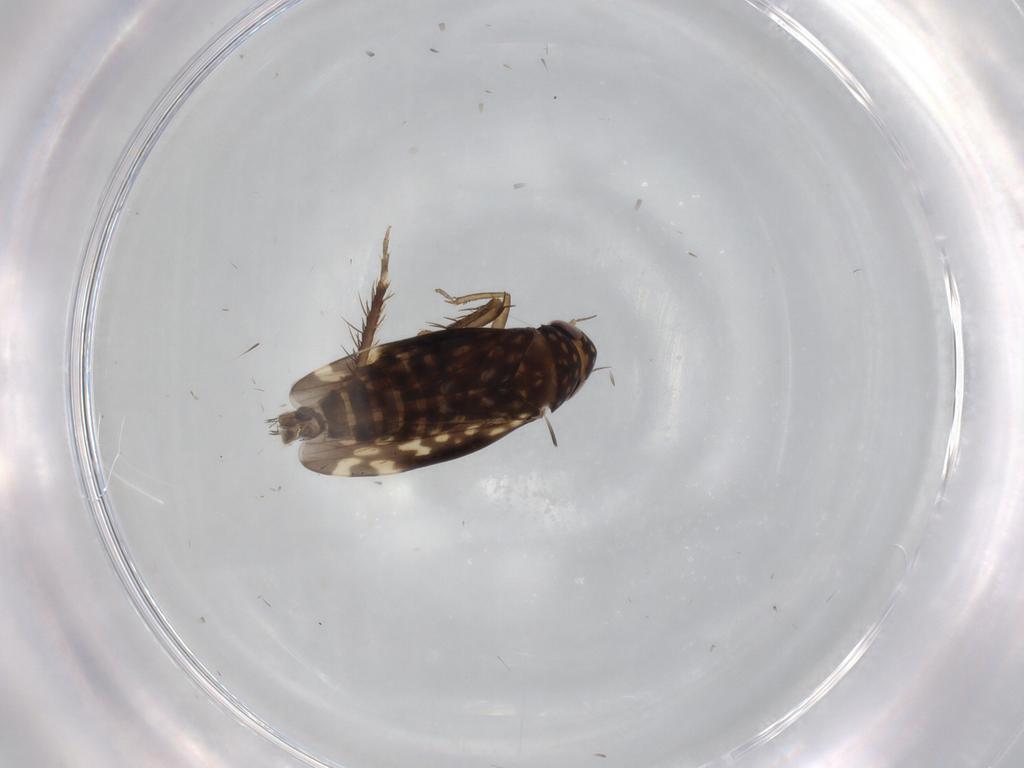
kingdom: Animalia
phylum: Arthropoda
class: Insecta
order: Hemiptera
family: Cicadellidae
